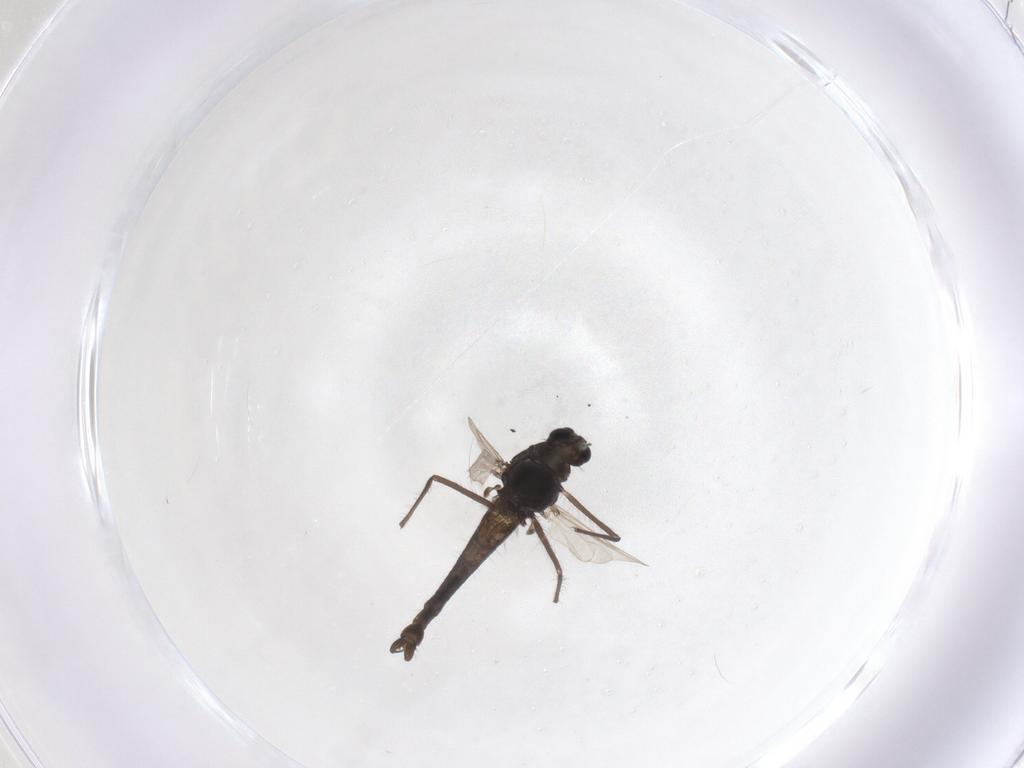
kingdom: Animalia
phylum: Arthropoda
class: Insecta
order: Diptera
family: Chironomidae
